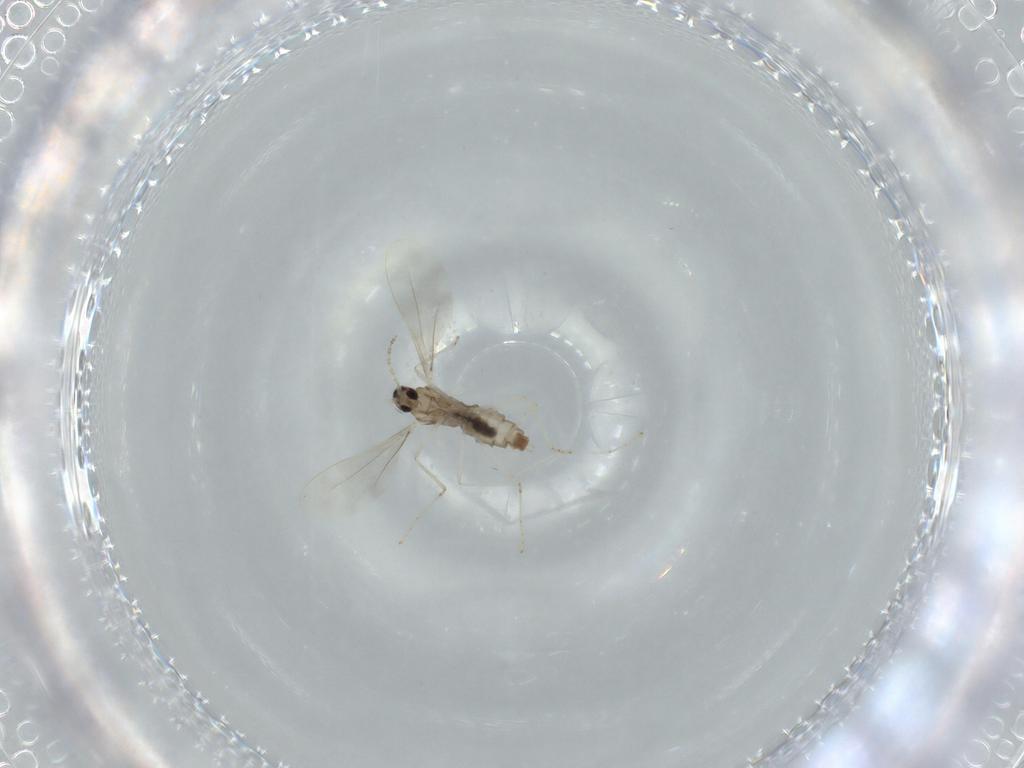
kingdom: Animalia
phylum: Arthropoda
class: Insecta
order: Diptera
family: Cecidomyiidae
